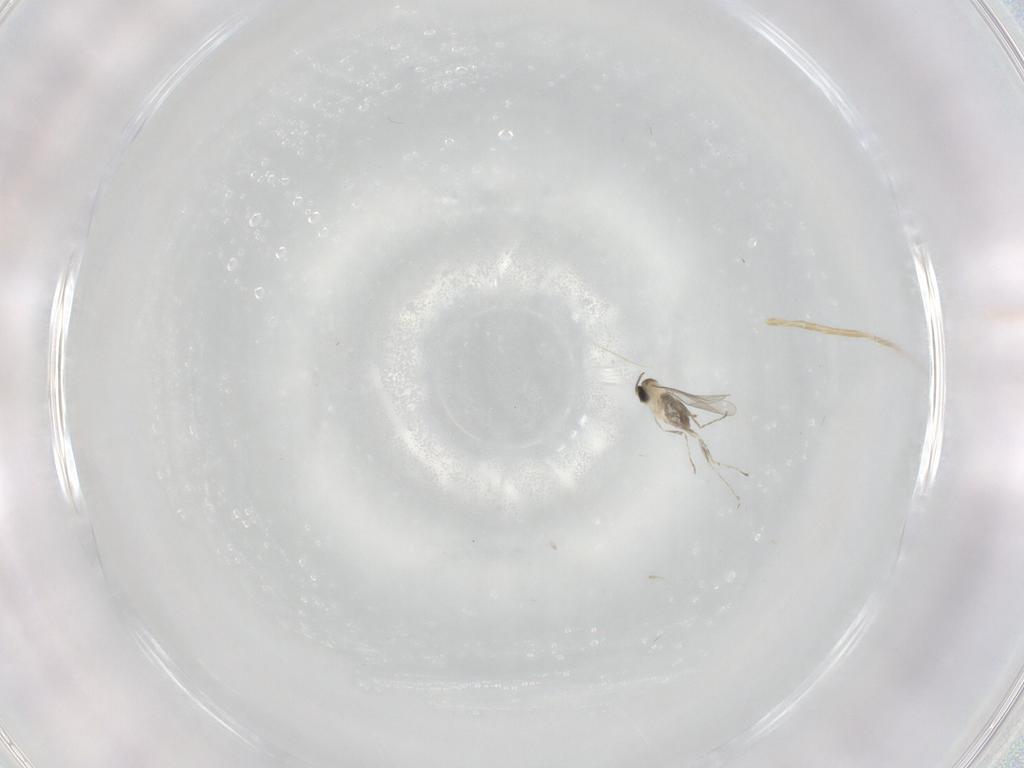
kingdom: Animalia
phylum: Arthropoda
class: Insecta
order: Diptera
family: Cecidomyiidae
